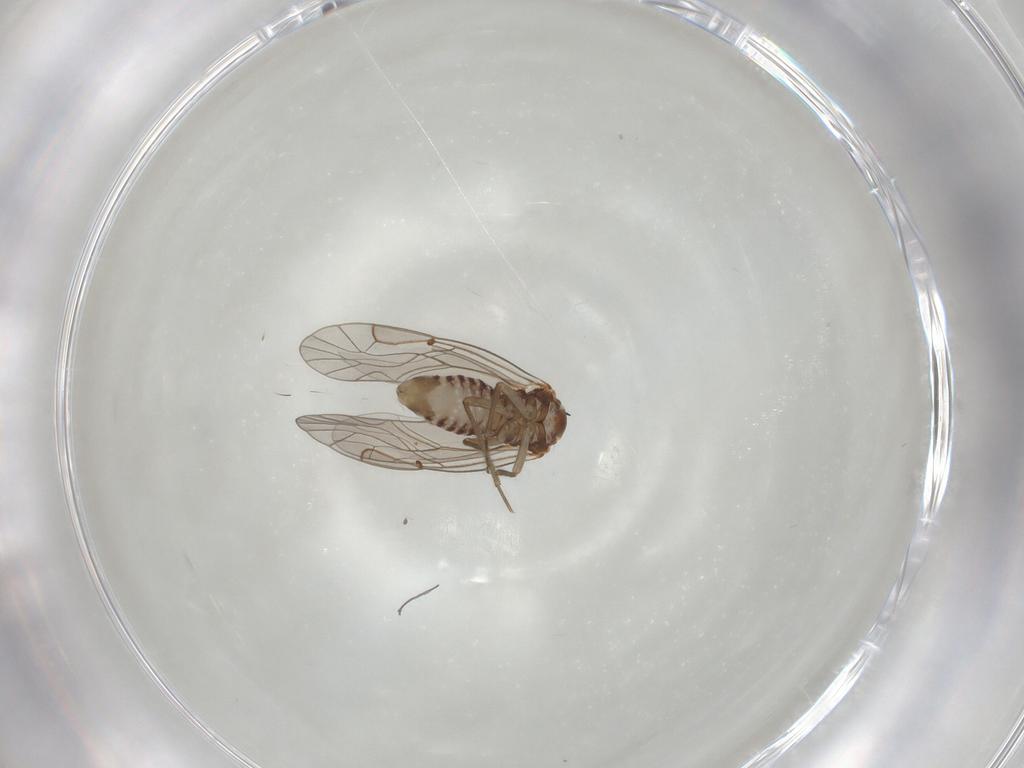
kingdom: Animalia
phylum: Arthropoda
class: Insecta
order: Psocodea
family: Lachesillidae
